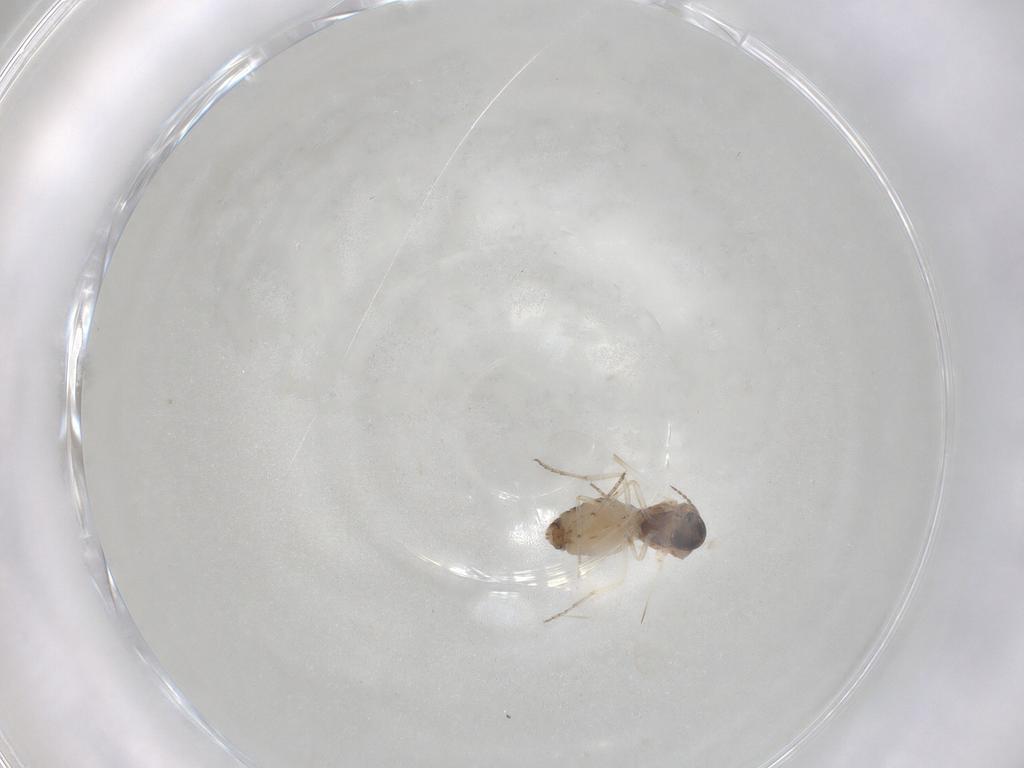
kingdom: Animalia
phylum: Arthropoda
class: Insecta
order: Diptera
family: Ceratopogonidae
